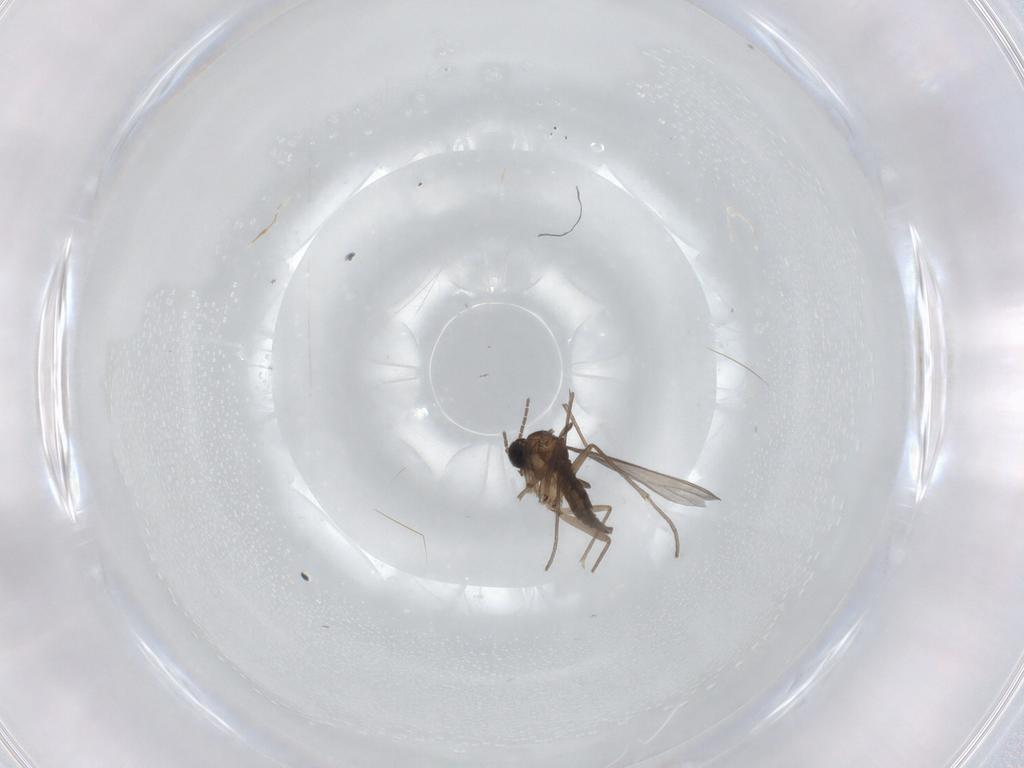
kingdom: Animalia
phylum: Arthropoda
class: Insecta
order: Diptera
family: Sciaridae
